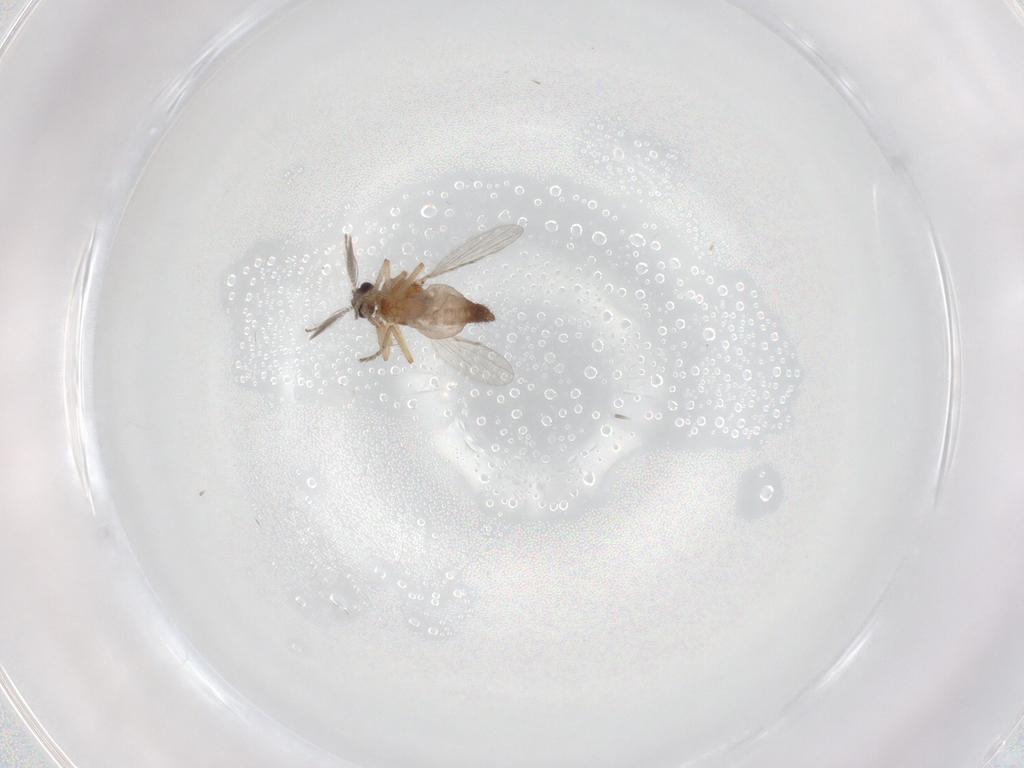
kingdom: Animalia
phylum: Arthropoda
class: Insecta
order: Diptera
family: Ceratopogonidae
